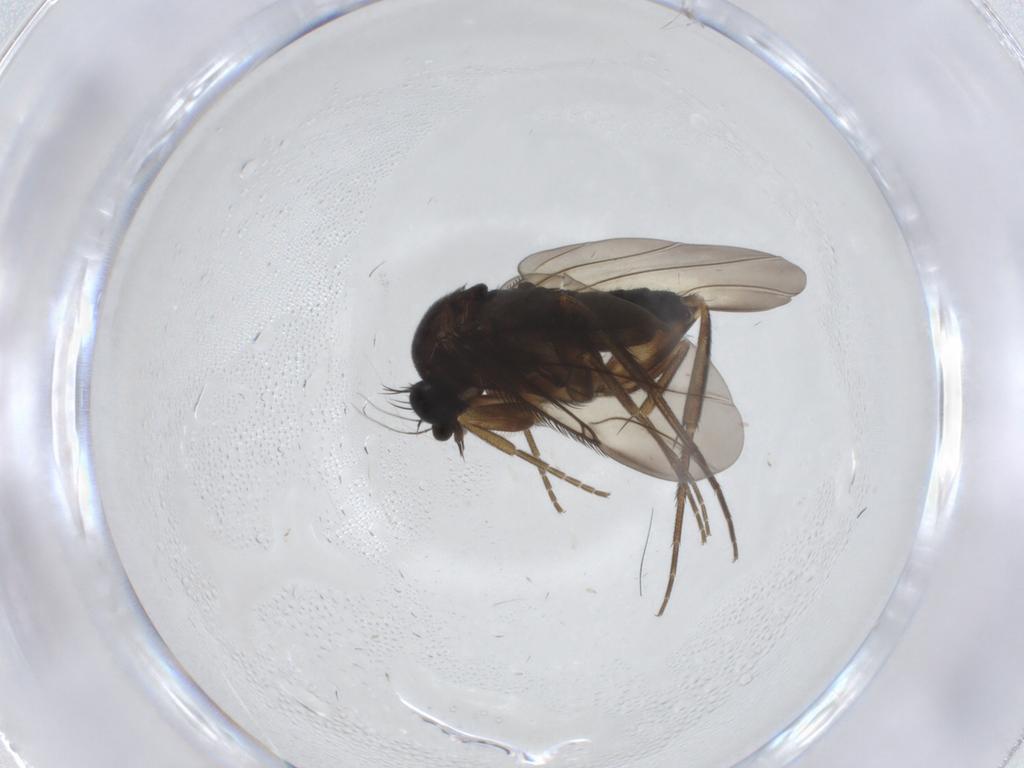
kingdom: Animalia
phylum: Arthropoda
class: Insecta
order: Diptera
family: Phoridae
